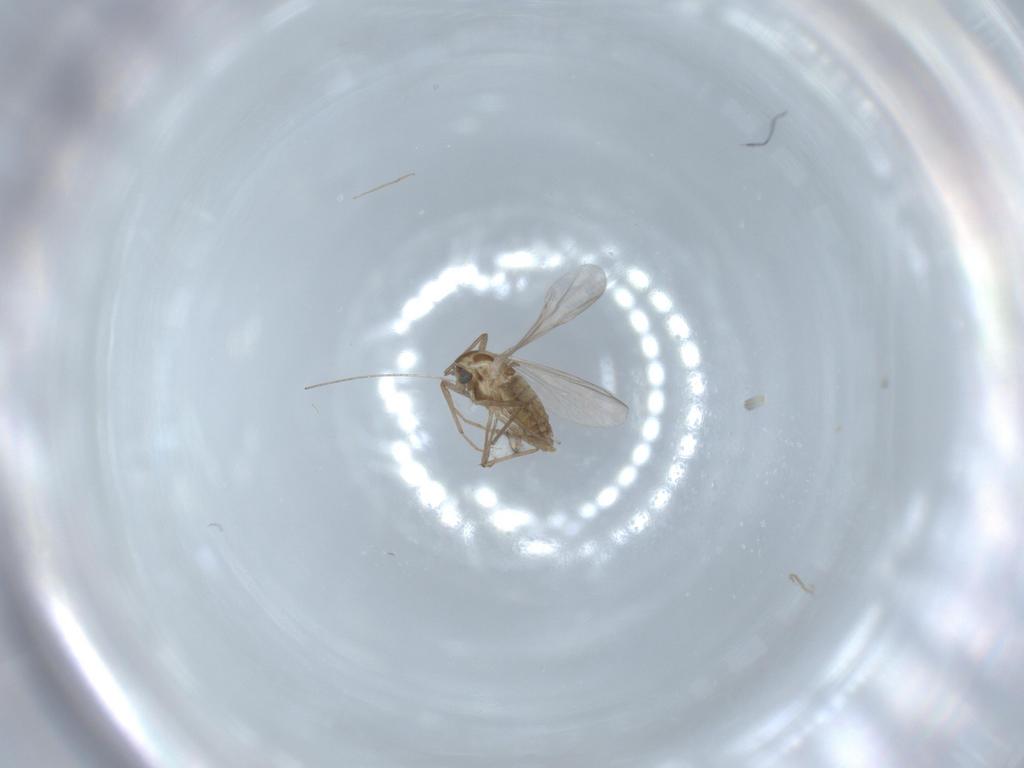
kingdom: Animalia
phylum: Arthropoda
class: Insecta
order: Diptera
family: Chironomidae
